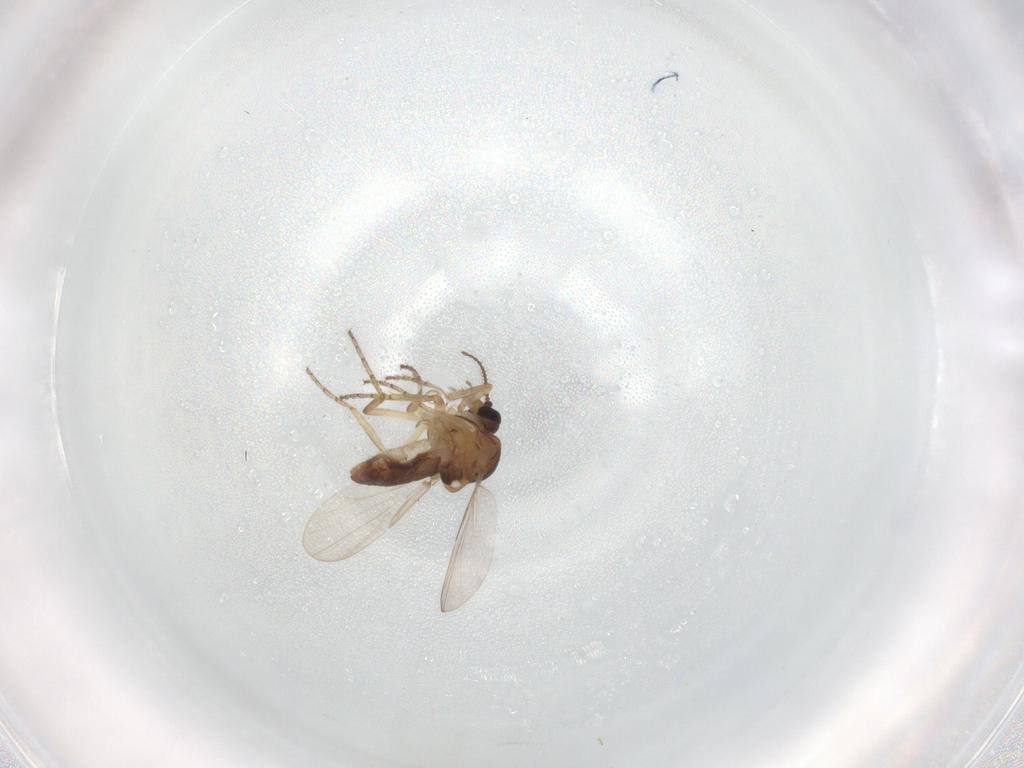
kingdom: Animalia
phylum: Arthropoda
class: Insecta
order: Diptera
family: Ceratopogonidae
